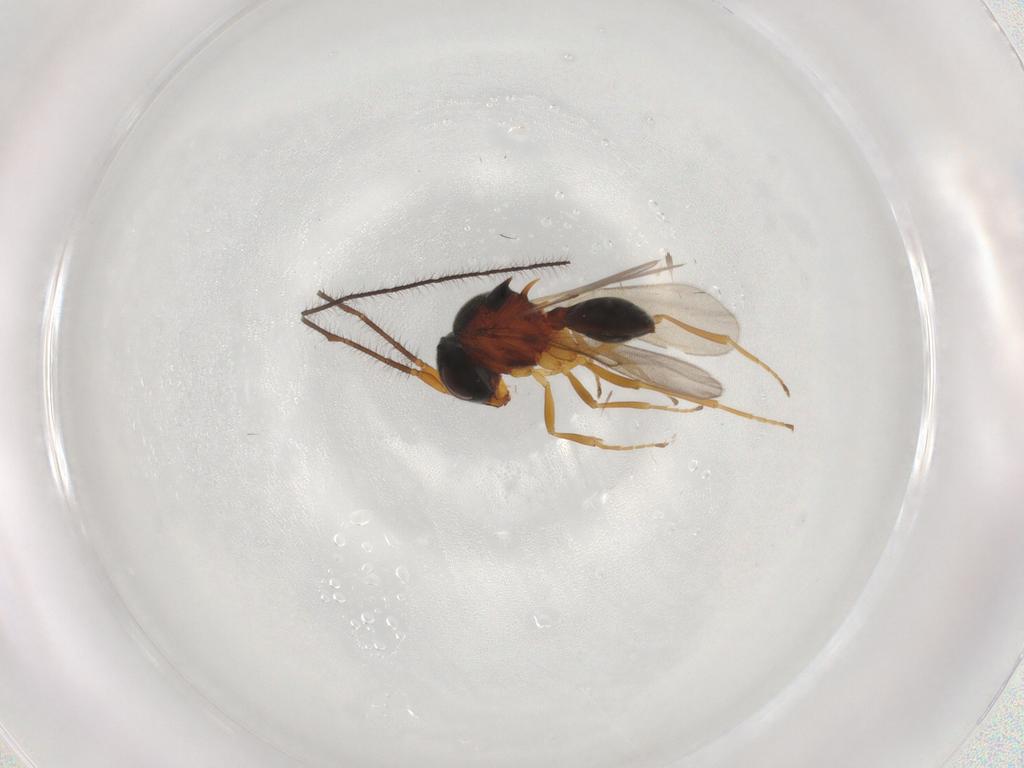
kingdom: Animalia
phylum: Arthropoda
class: Insecta
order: Hymenoptera
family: Scelionidae
